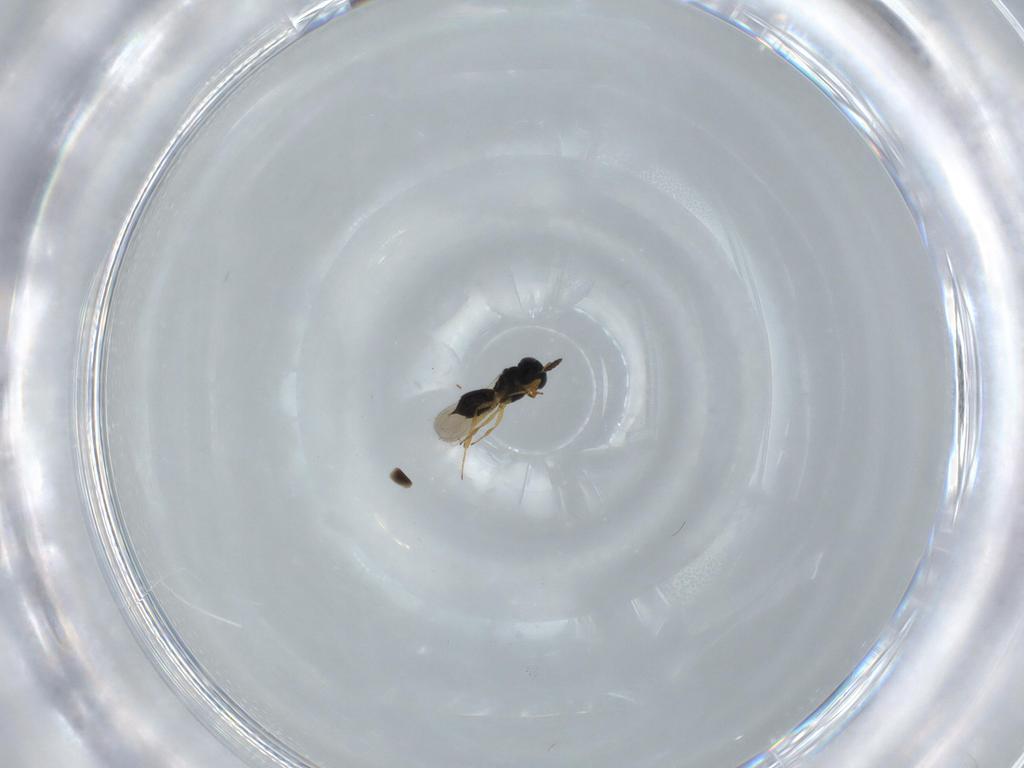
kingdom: Animalia
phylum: Arthropoda
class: Insecta
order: Hymenoptera
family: Scelionidae
